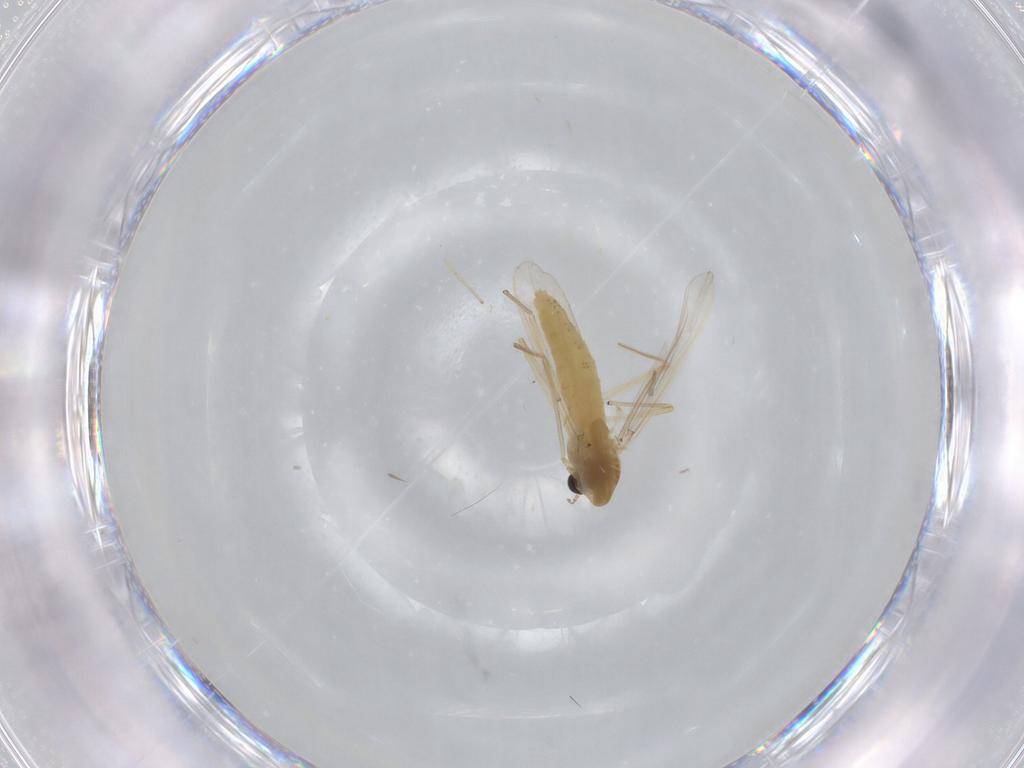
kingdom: Animalia
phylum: Arthropoda
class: Insecta
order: Diptera
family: Chironomidae
